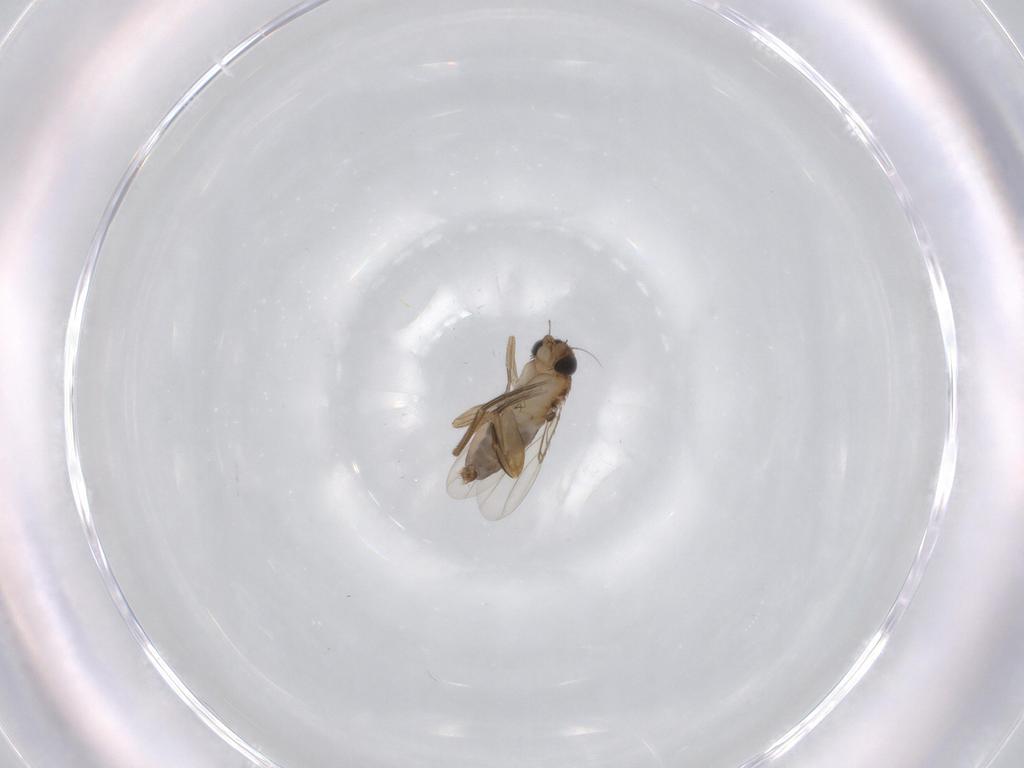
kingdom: Animalia
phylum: Arthropoda
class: Insecta
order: Diptera
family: Phoridae
